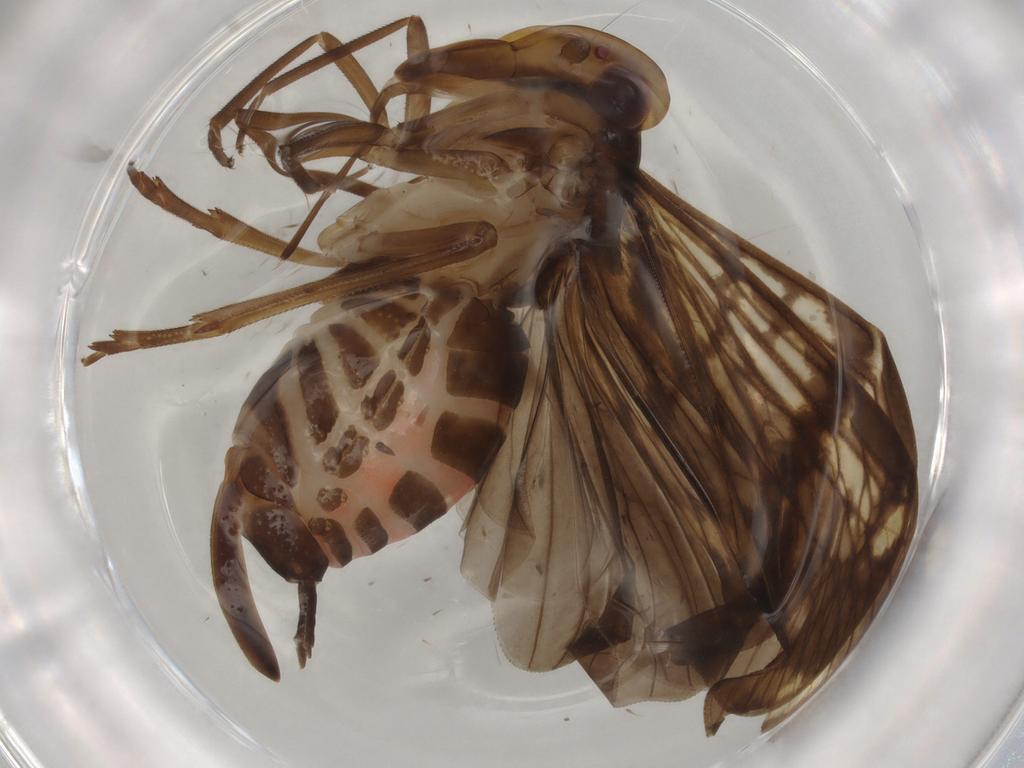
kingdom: Animalia
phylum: Arthropoda
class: Insecta
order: Hemiptera
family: Cixiidae
